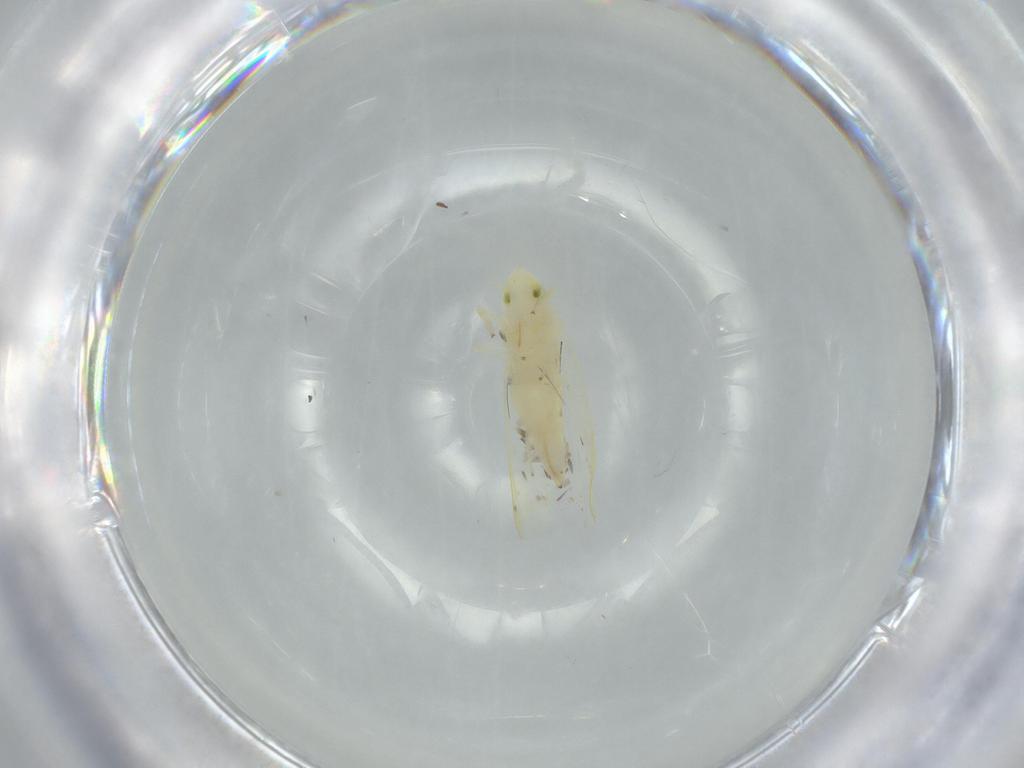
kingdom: Animalia
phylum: Arthropoda
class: Insecta
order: Hemiptera
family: Cicadellidae
